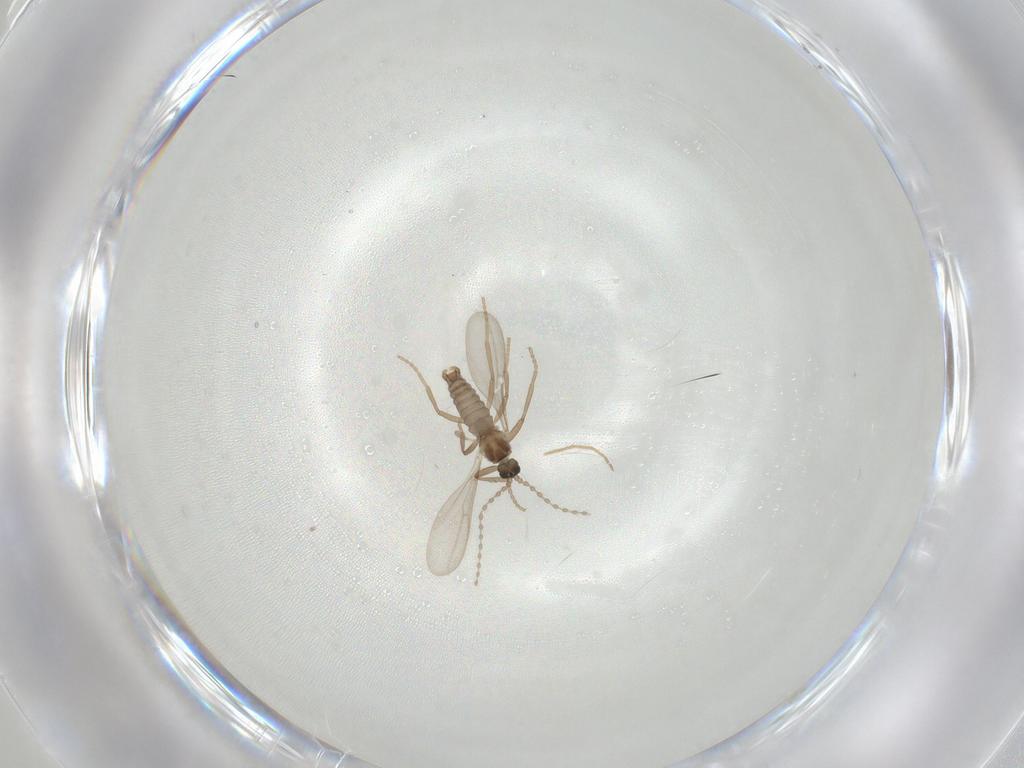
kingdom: Animalia
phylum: Arthropoda
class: Insecta
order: Diptera
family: Cecidomyiidae
